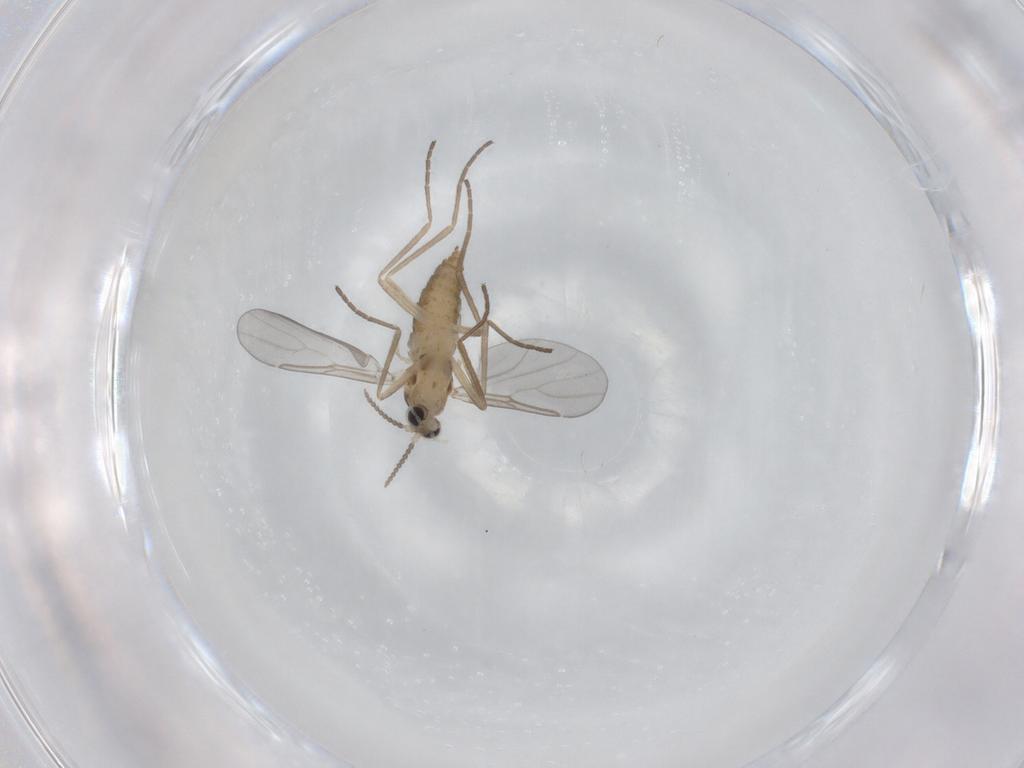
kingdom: Animalia
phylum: Arthropoda
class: Insecta
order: Diptera
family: Cecidomyiidae
